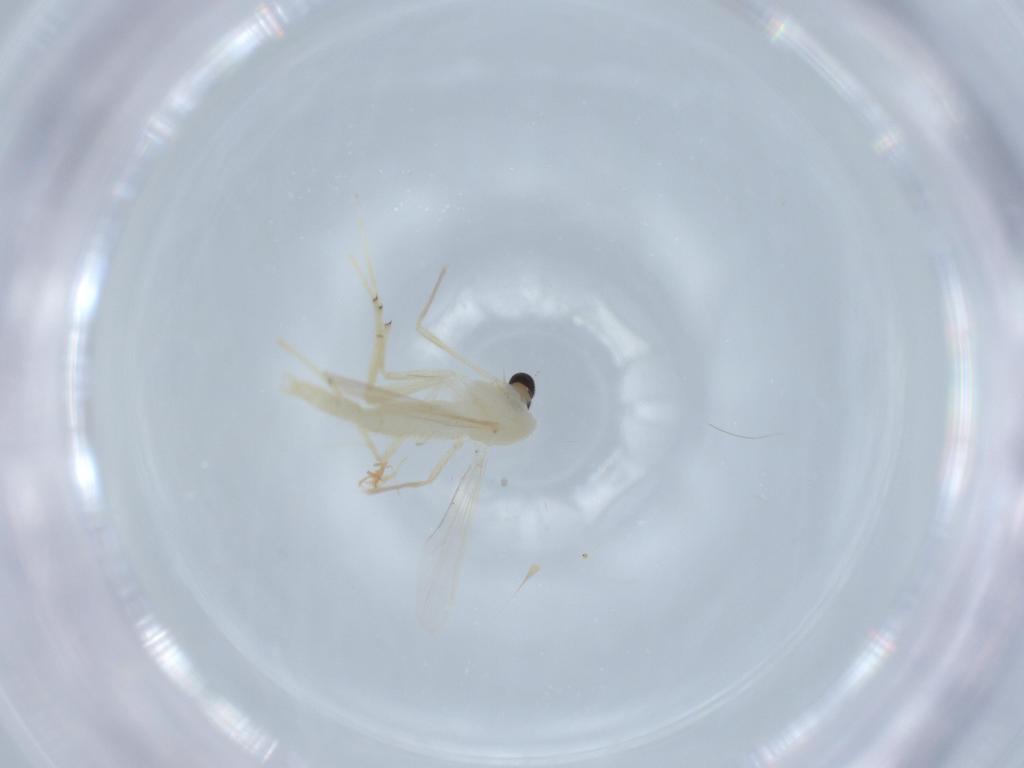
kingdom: Animalia
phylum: Arthropoda
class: Insecta
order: Diptera
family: Chironomidae
